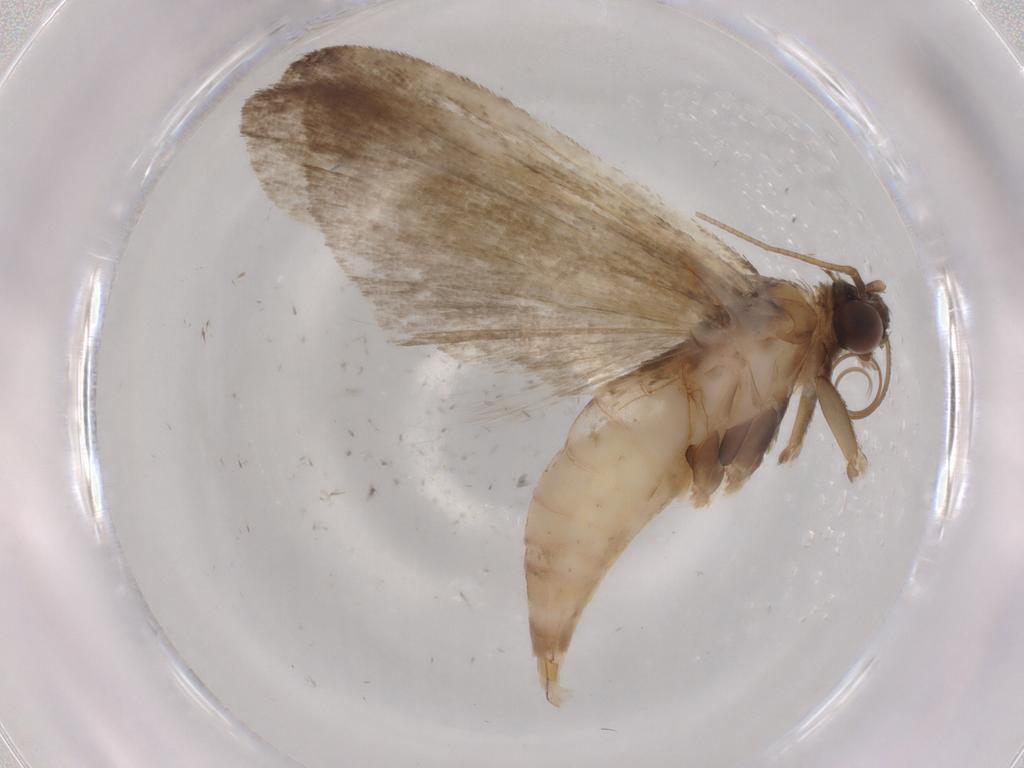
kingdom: Animalia
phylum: Arthropoda
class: Insecta
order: Lepidoptera
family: Noctuidae
